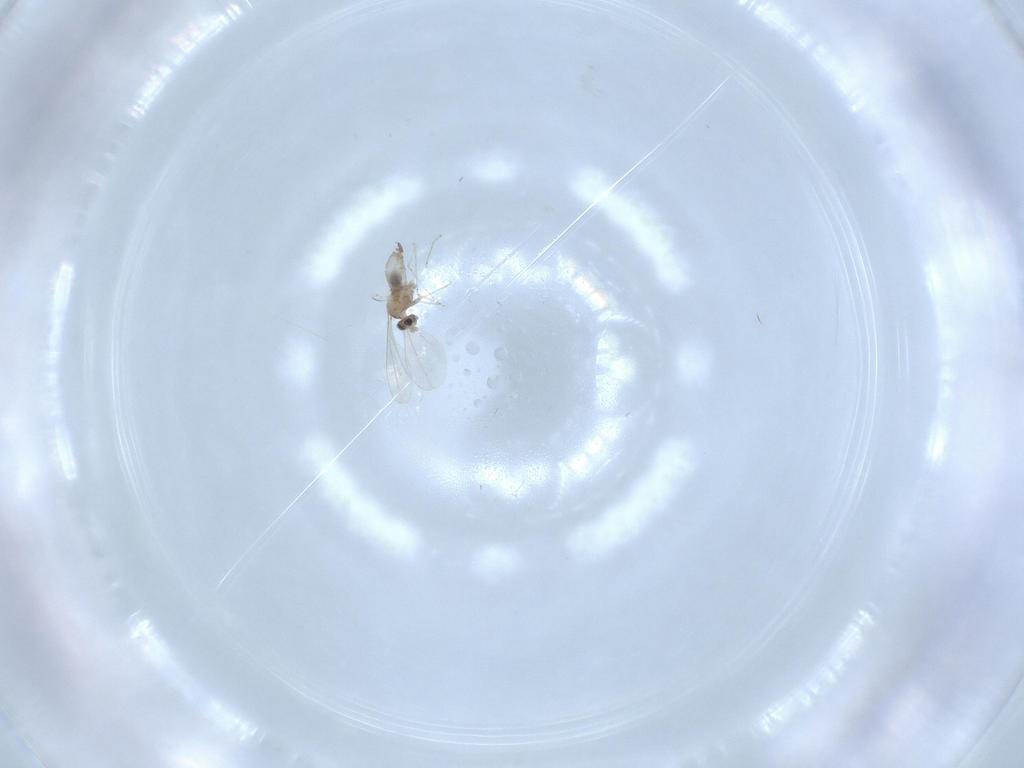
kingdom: Animalia
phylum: Arthropoda
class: Insecta
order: Diptera
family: Cecidomyiidae
